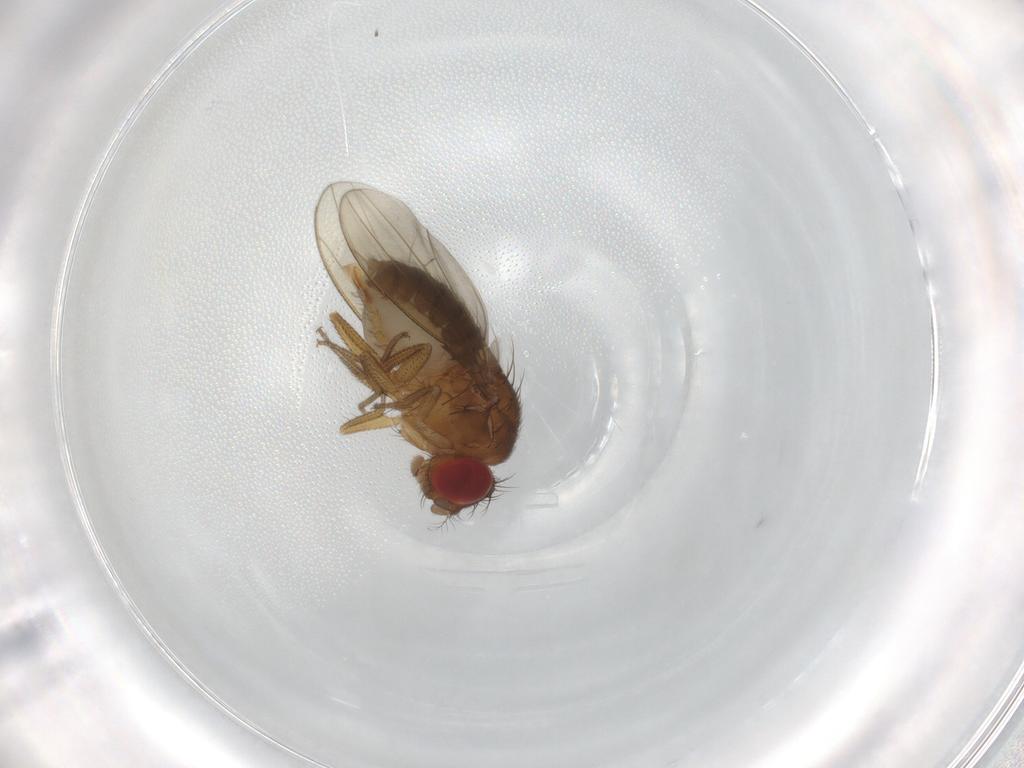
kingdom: Animalia
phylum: Arthropoda
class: Insecta
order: Diptera
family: Drosophilidae
